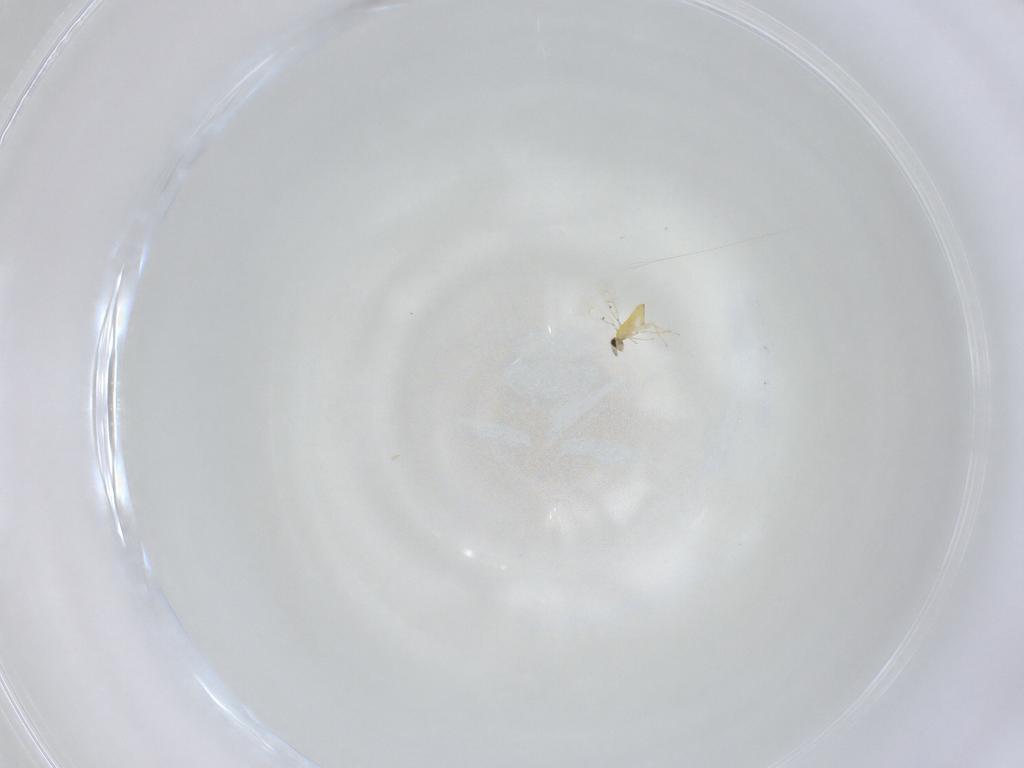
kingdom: Animalia
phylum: Arthropoda
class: Insecta
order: Hymenoptera
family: Trichogrammatidae
